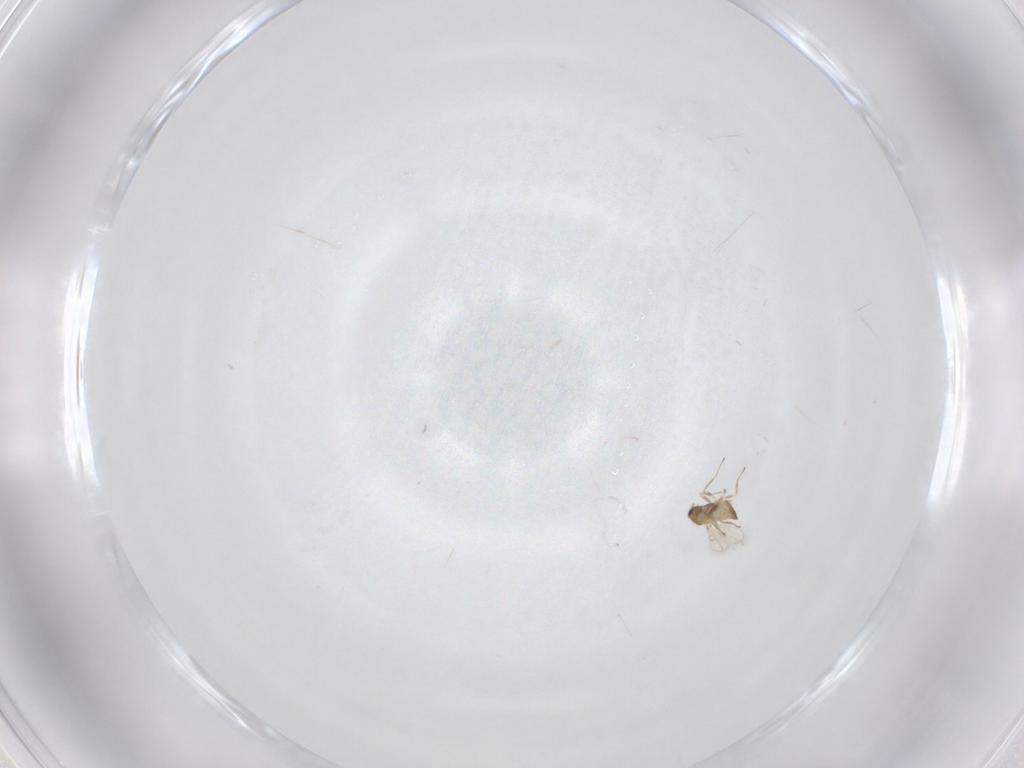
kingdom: Animalia
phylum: Arthropoda
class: Insecta
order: Hymenoptera
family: Trichogrammatidae
